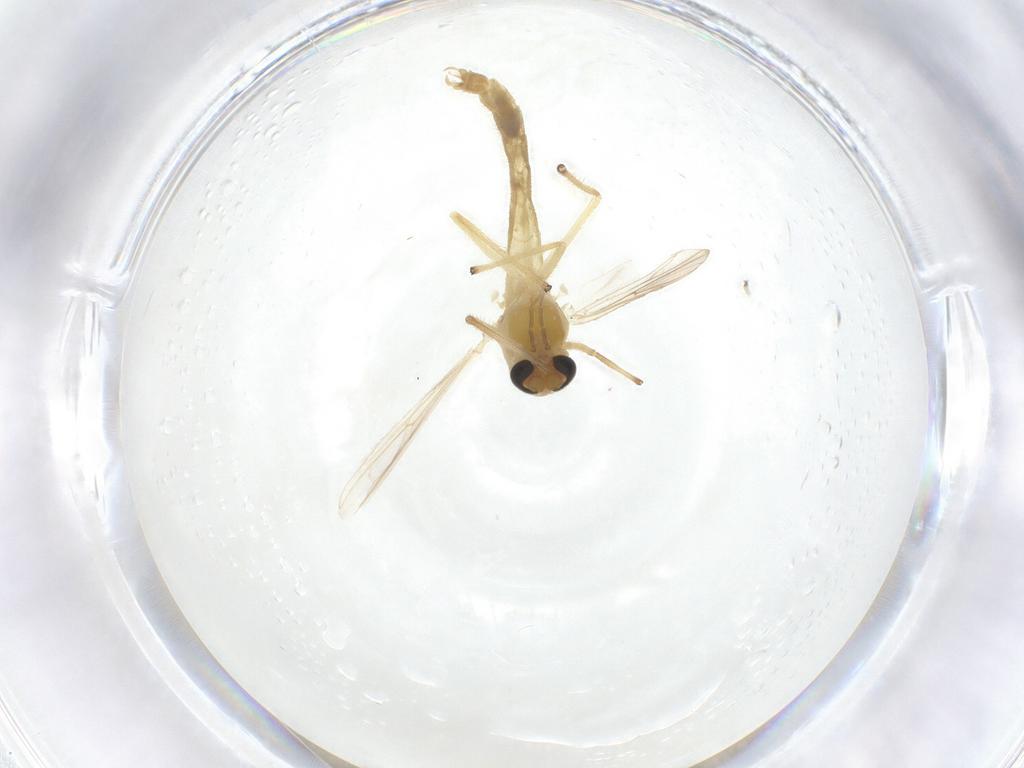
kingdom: Animalia
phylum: Arthropoda
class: Insecta
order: Diptera
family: Chironomidae
